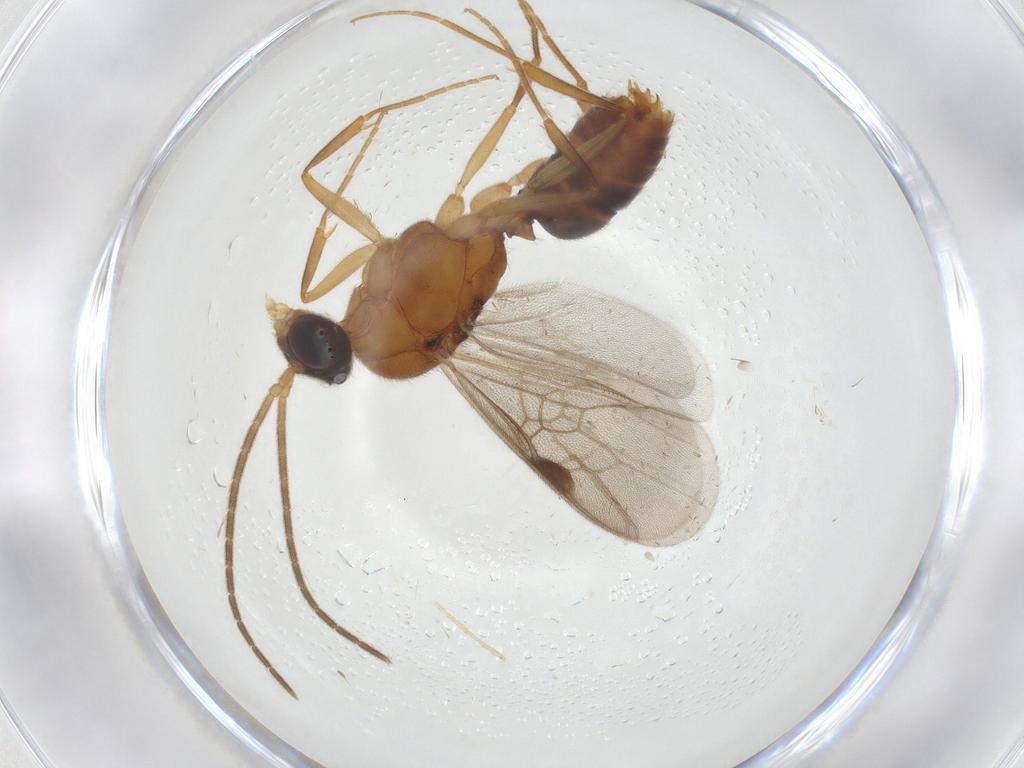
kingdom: Animalia
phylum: Arthropoda
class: Insecta
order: Hymenoptera
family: Formicidae
